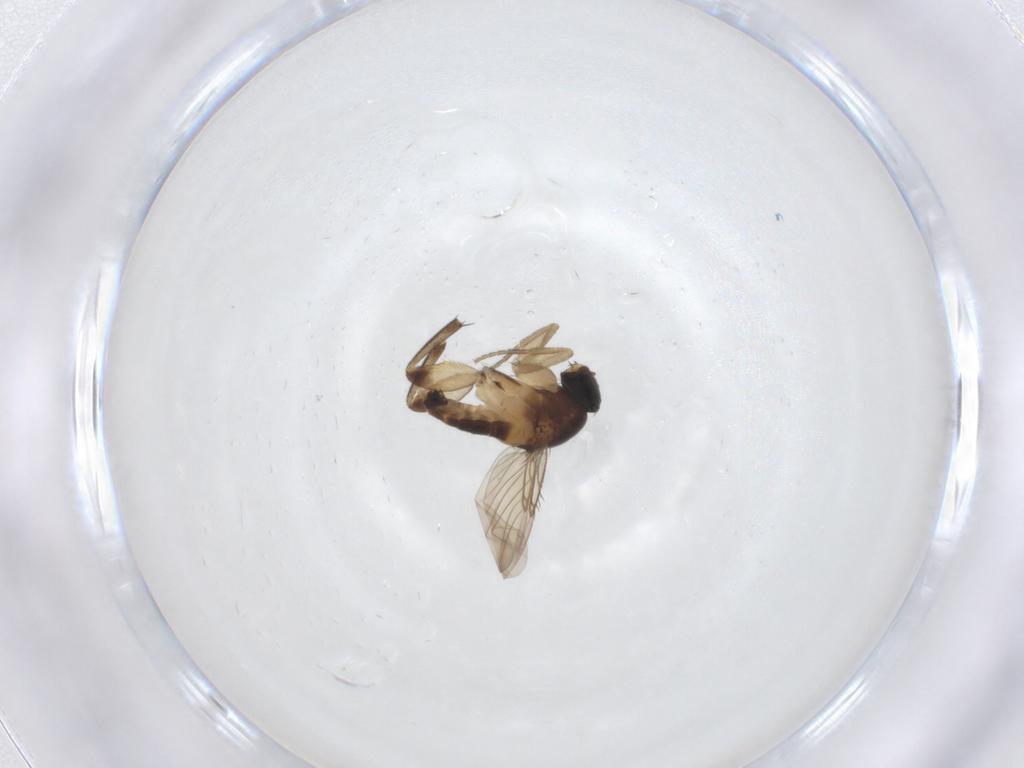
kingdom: Animalia
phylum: Arthropoda
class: Insecta
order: Diptera
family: Phoridae
